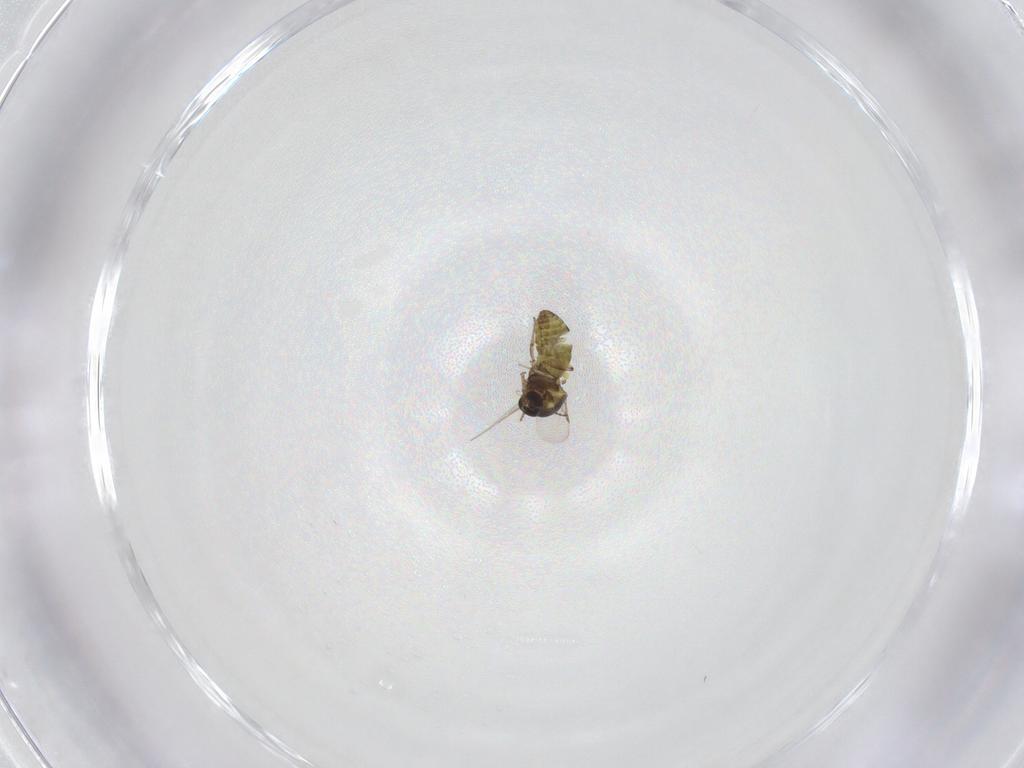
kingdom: Animalia
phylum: Arthropoda
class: Insecta
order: Diptera
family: Ceratopogonidae
